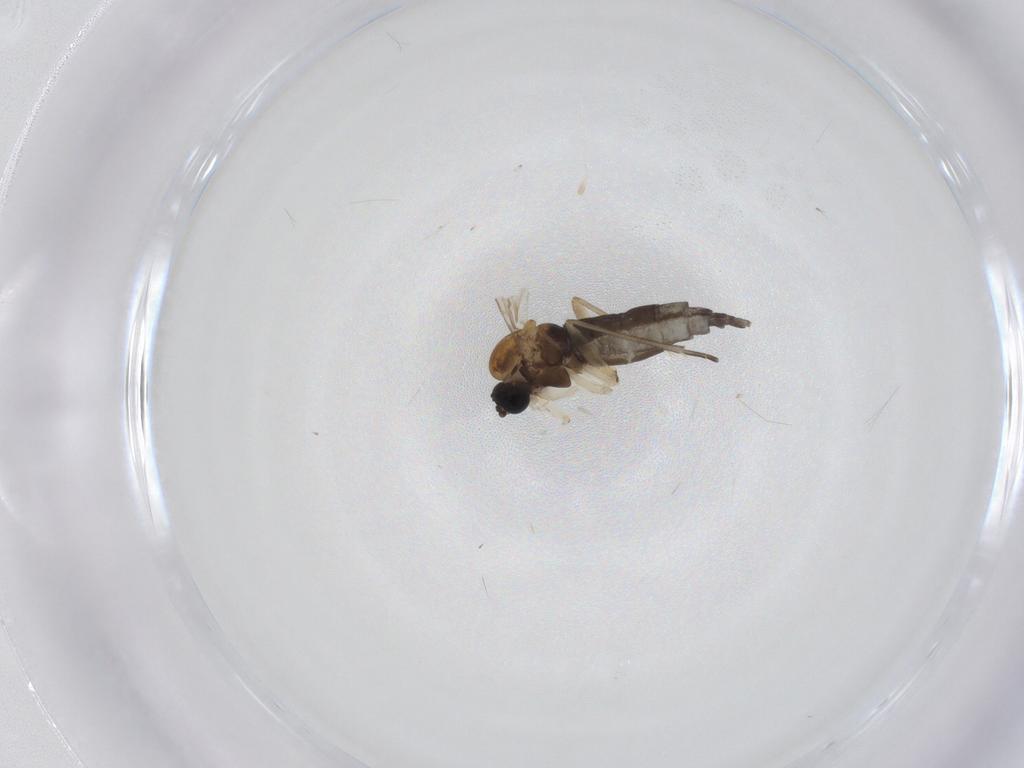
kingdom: Animalia
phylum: Arthropoda
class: Insecta
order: Diptera
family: Sciaridae
